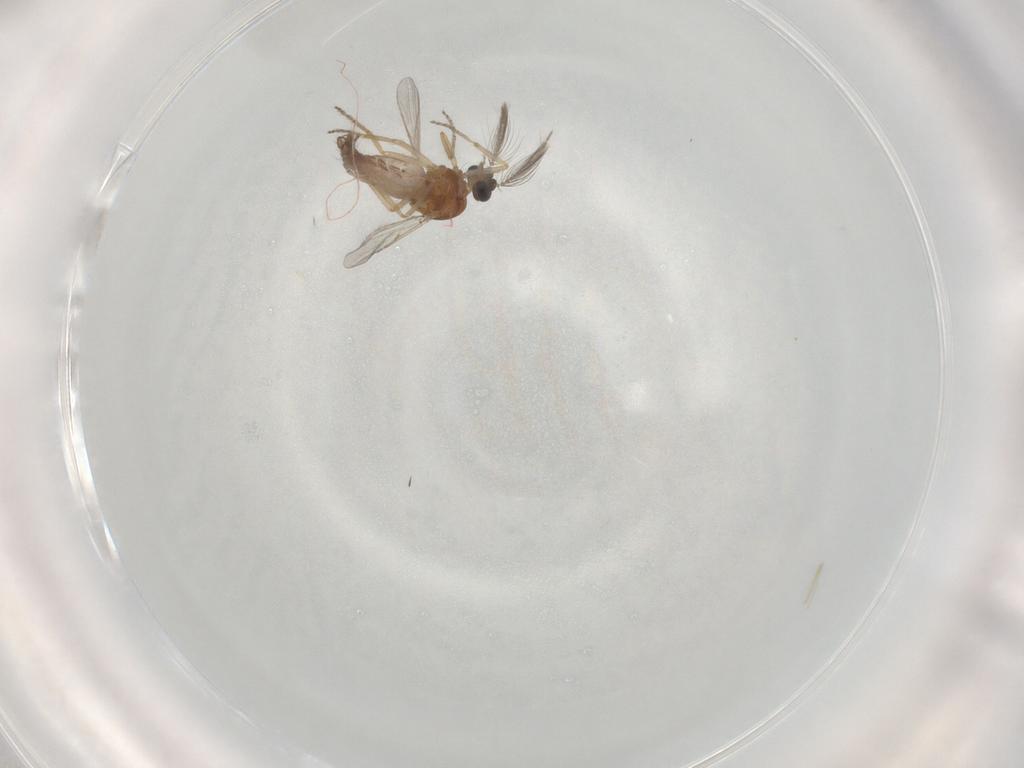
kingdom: Animalia
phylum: Arthropoda
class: Insecta
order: Diptera
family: Ceratopogonidae
